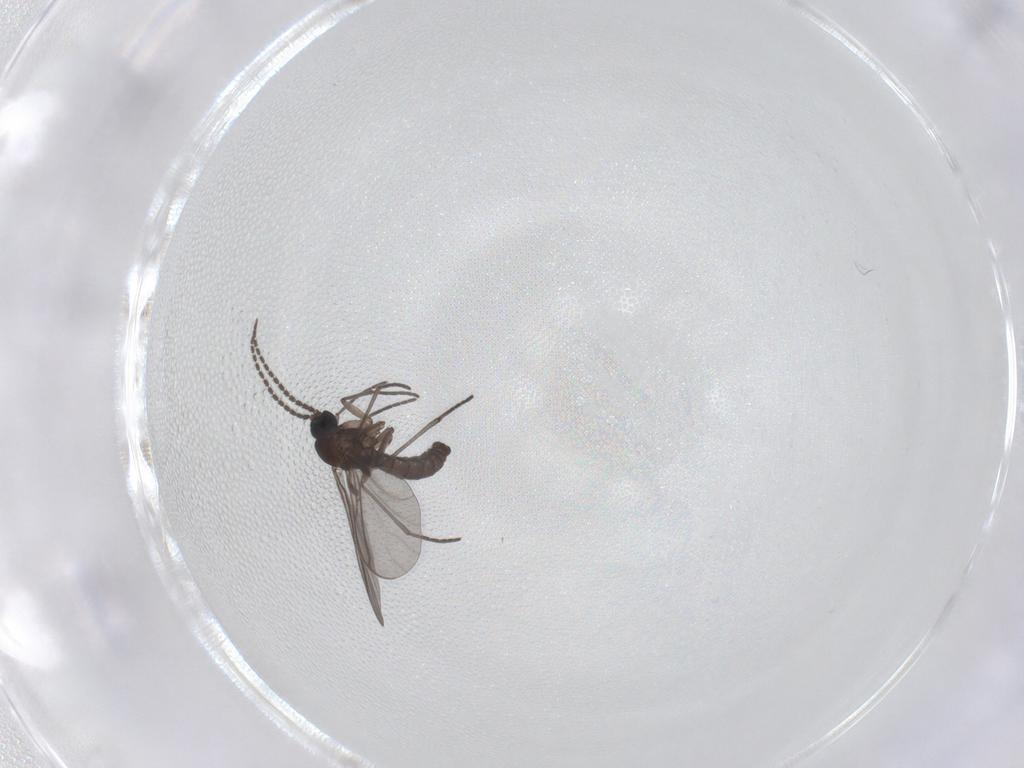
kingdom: Animalia
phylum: Arthropoda
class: Insecta
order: Diptera
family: Sciaridae
